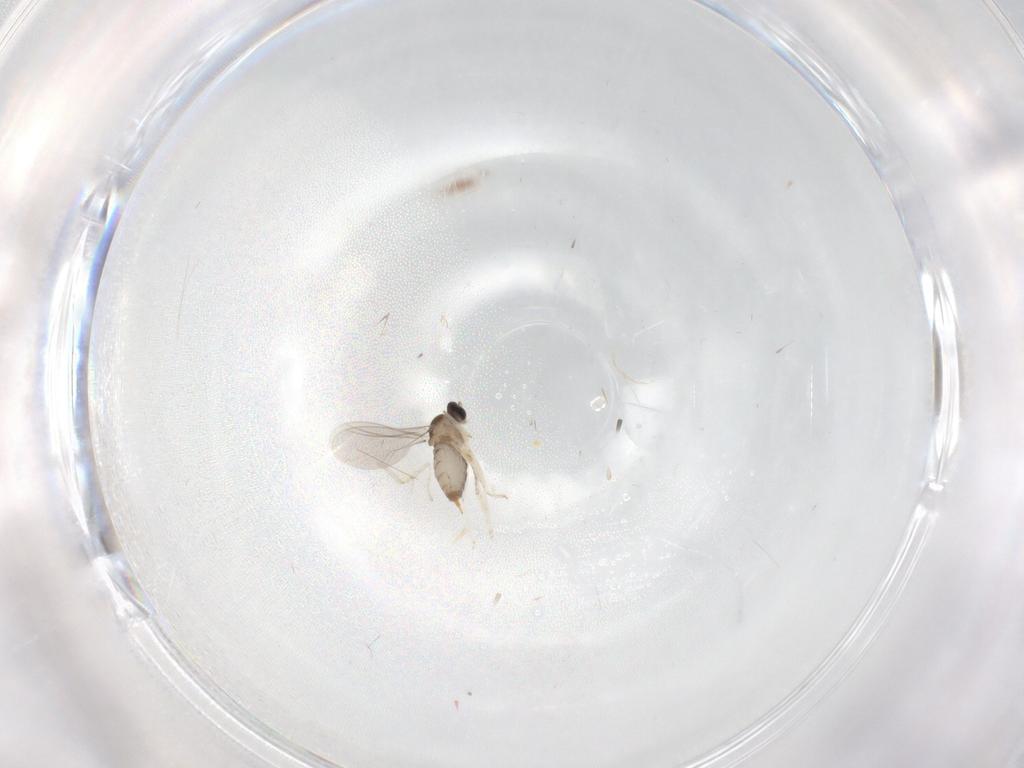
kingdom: Animalia
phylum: Arthropoda
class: Insecta
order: Diptera
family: Cecidomyiidae
